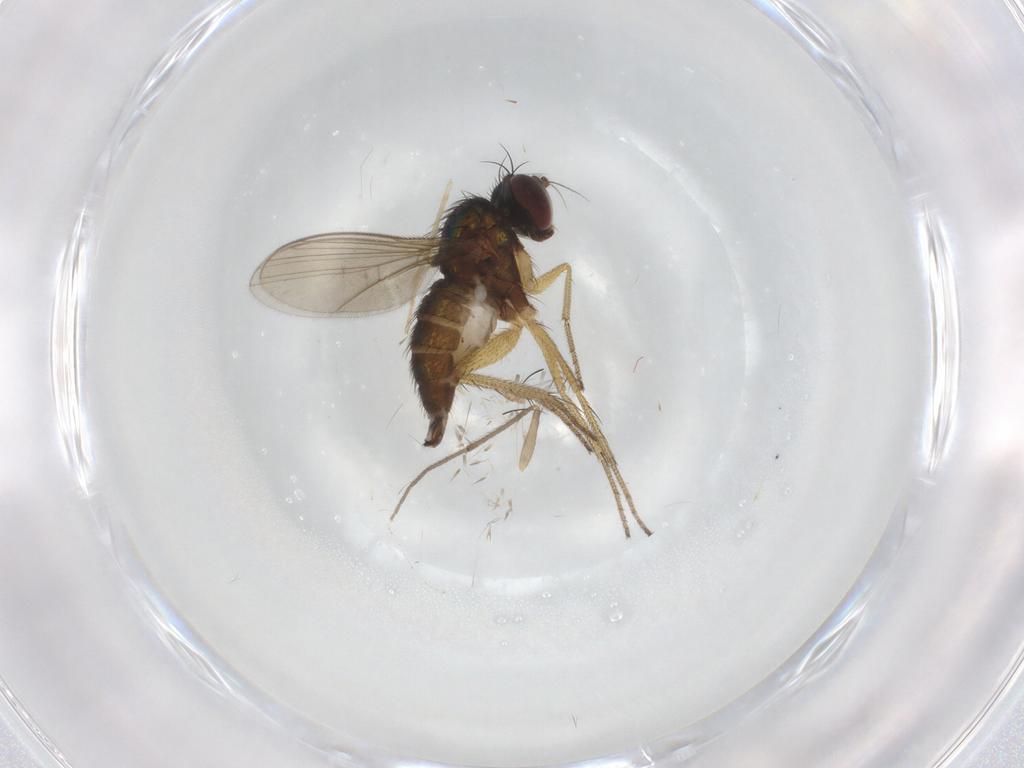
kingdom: Animalia
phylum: Arthropoda
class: Insecta
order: Diptera
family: Chironomidae
